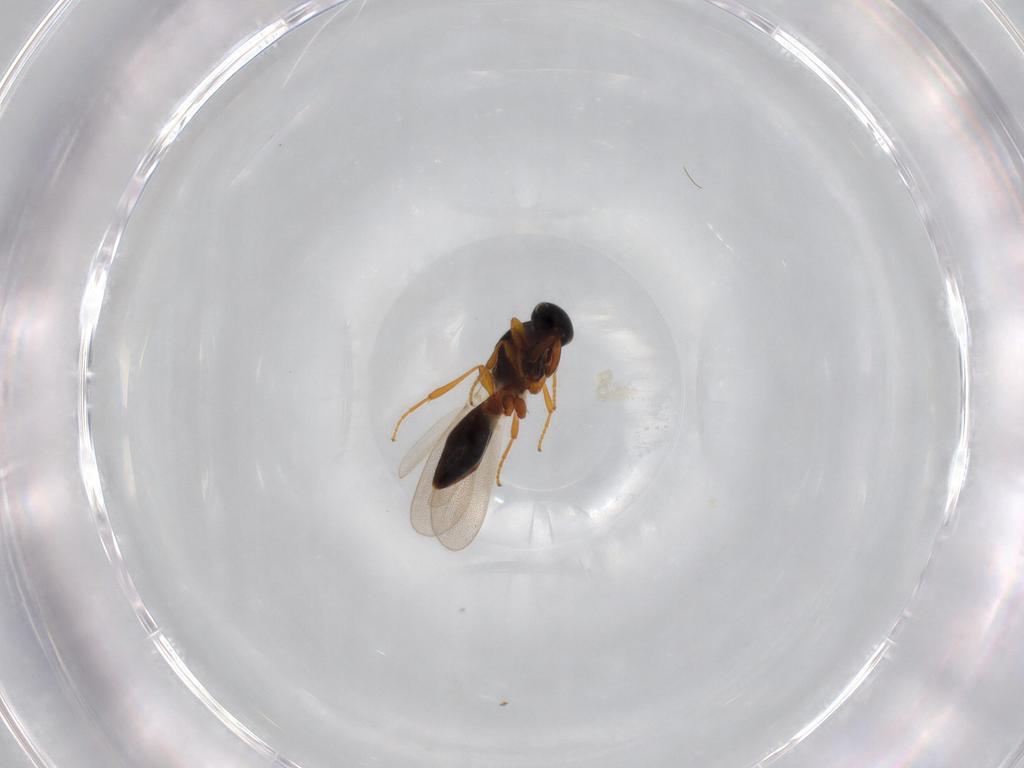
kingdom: Animalia
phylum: Arthropoda
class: Insecta
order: Hymenoptera
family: Platygastridae
